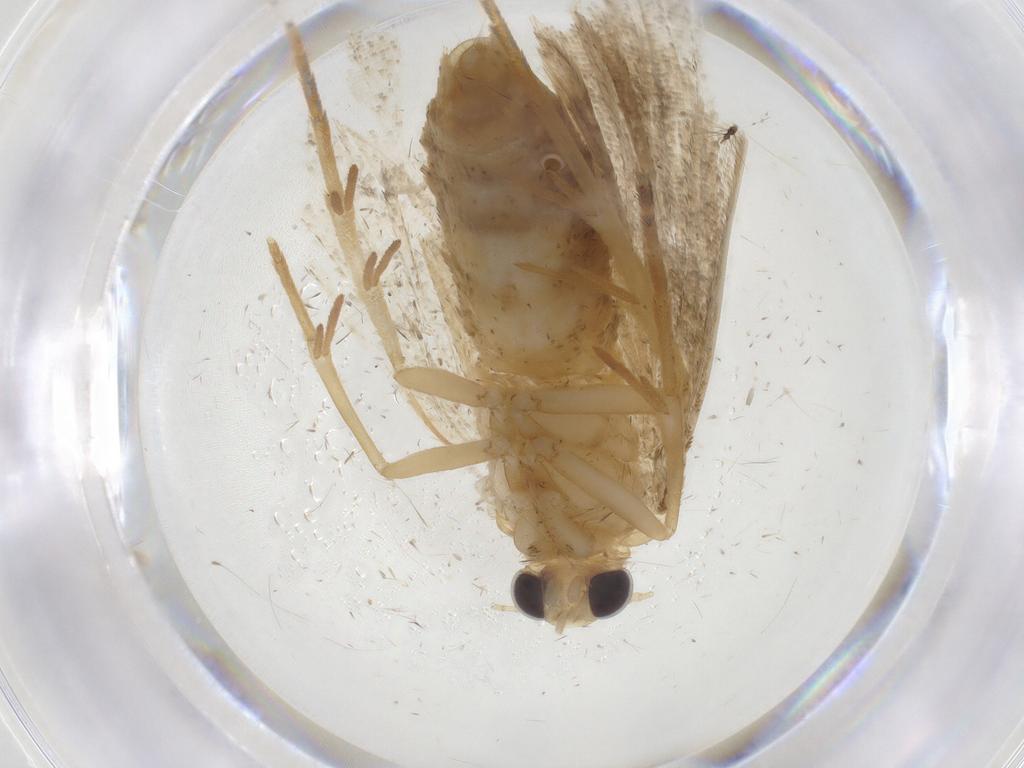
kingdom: Animalia
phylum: Arthropoda
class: Insecta
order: Lepidoptera
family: Erebidae
